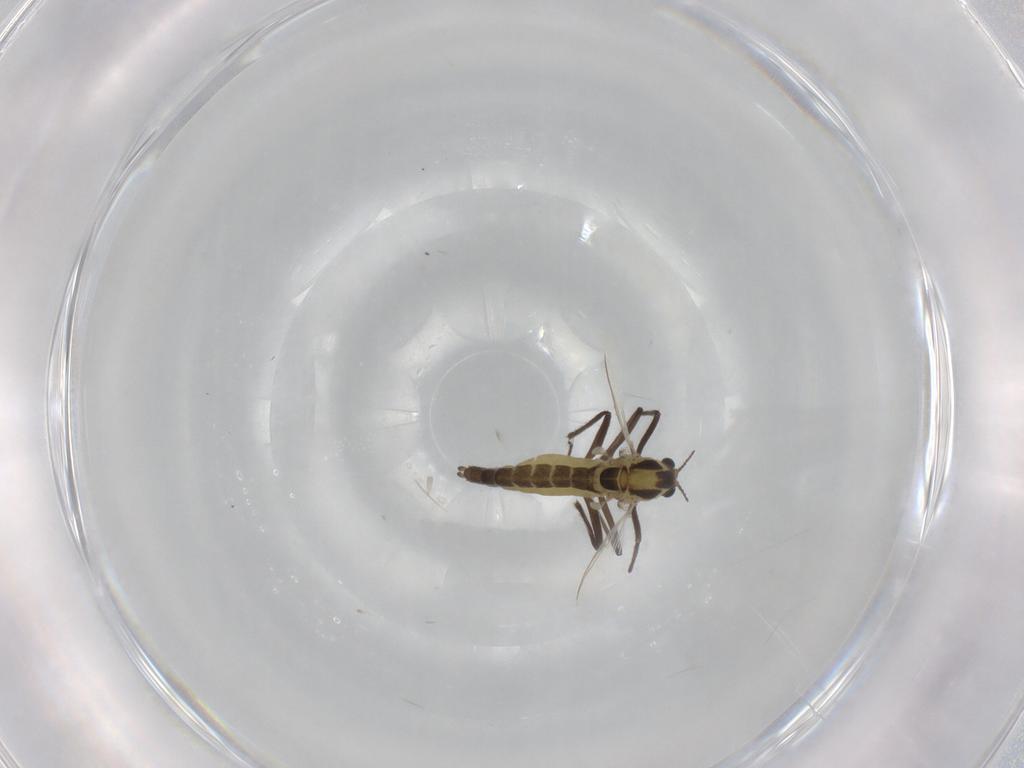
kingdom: Animalia
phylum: Arthropoda
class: Insecta
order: Diptera
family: Chironomidae
